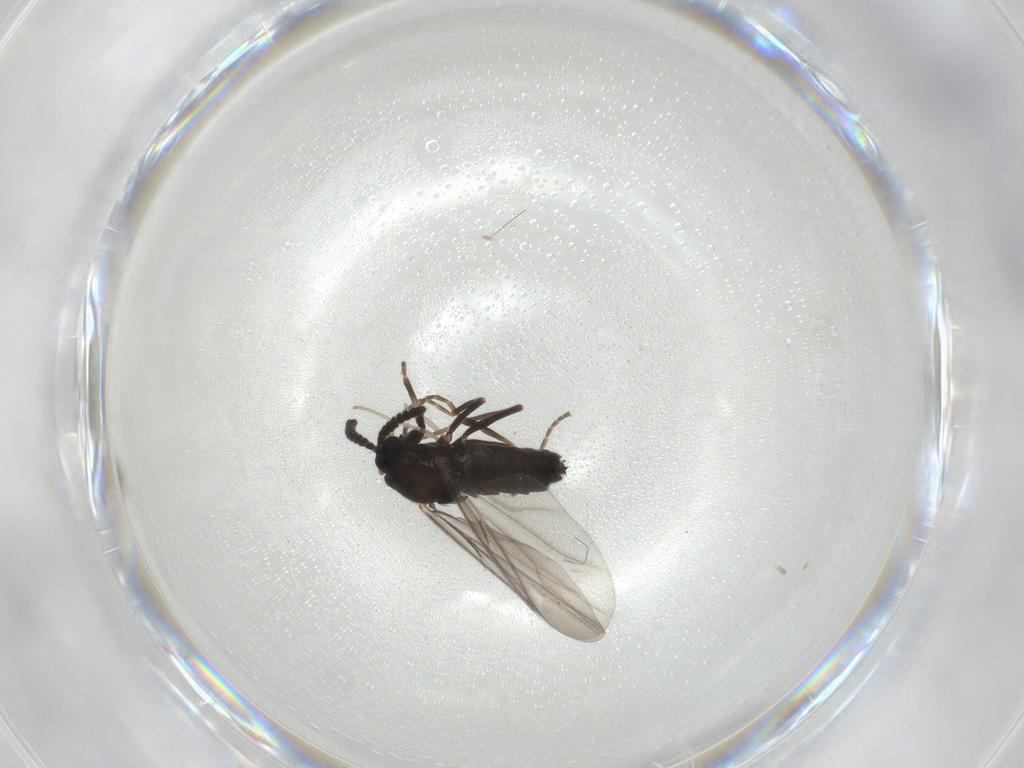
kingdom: Animalia
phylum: Arthropoda
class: Insecta
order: Diptera
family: Scatopsidae
